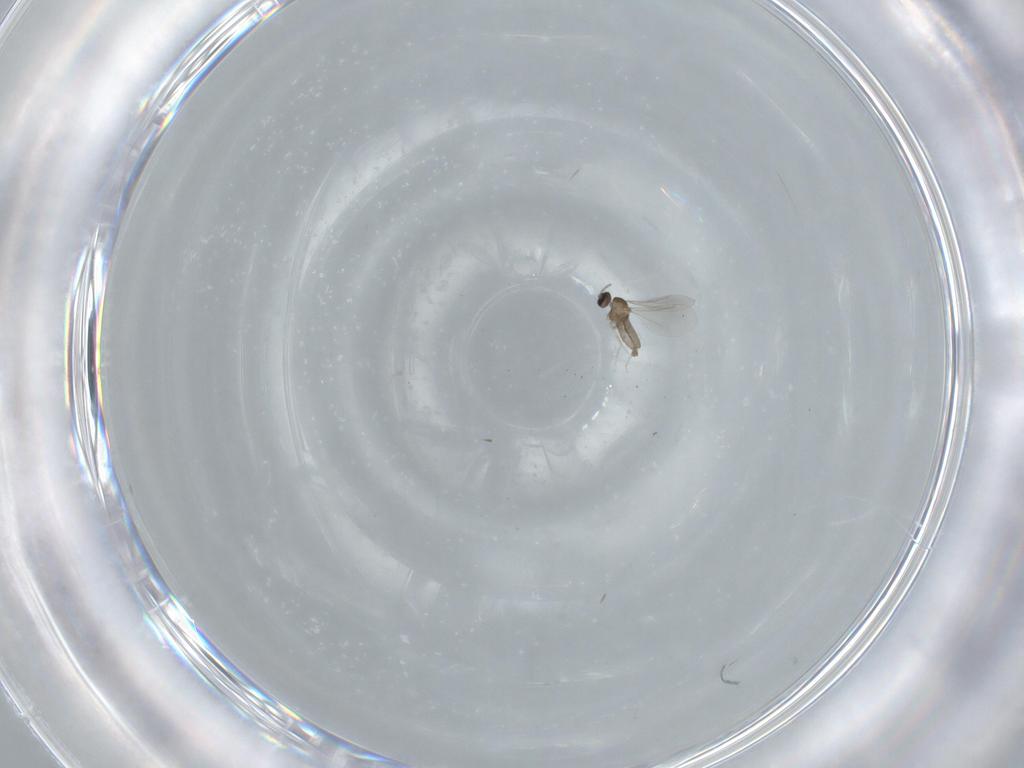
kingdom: Animalia
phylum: Arthropoda
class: Insecta
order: Diptera
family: Cecidomyiidae
